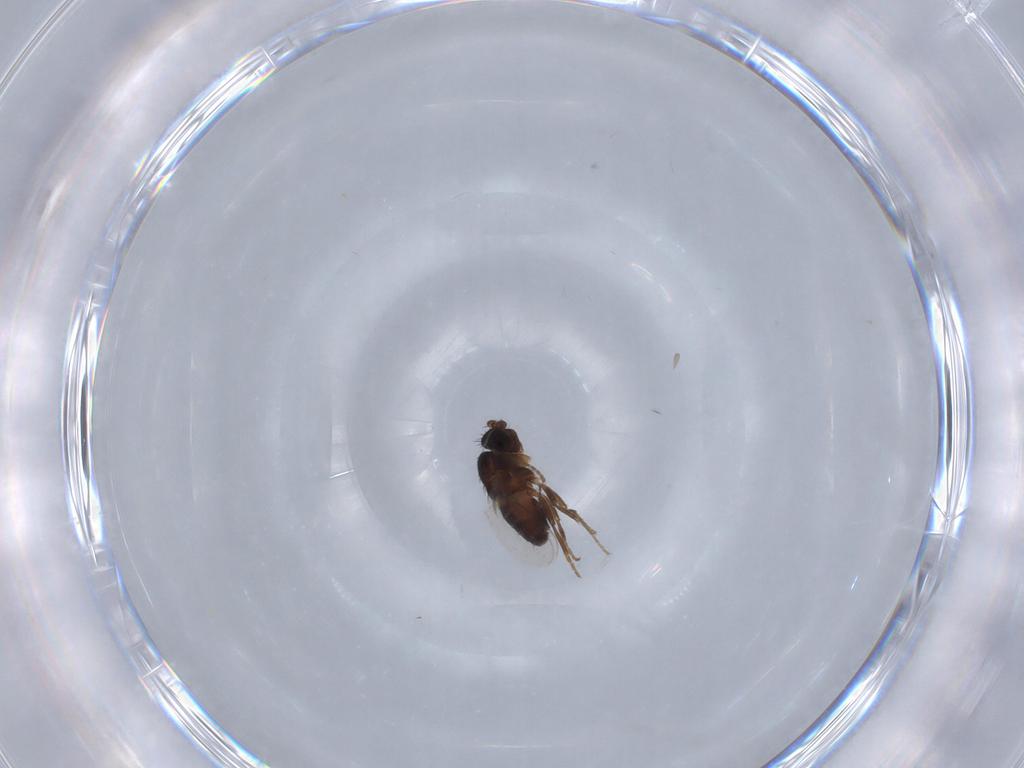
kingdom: Animalia
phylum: Arthropoda
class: Insecta
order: Diptera
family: Sphaeroceridae
